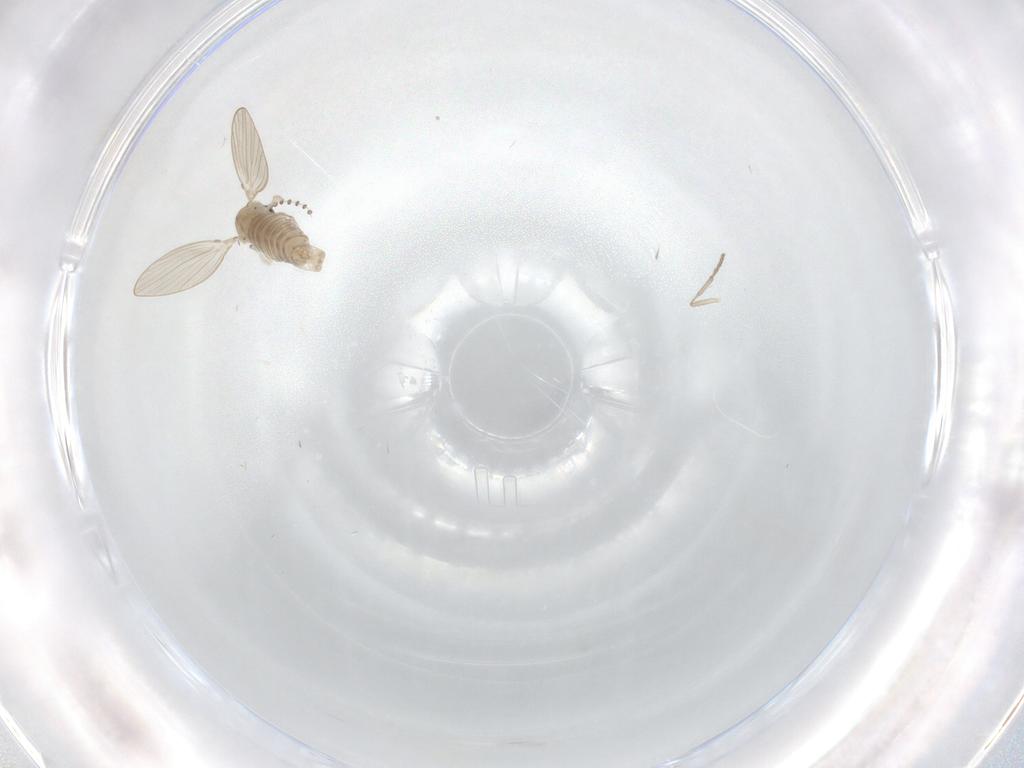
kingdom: Animalia
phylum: Arthropoda
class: Insecta
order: Diptera
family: Psychodidae
